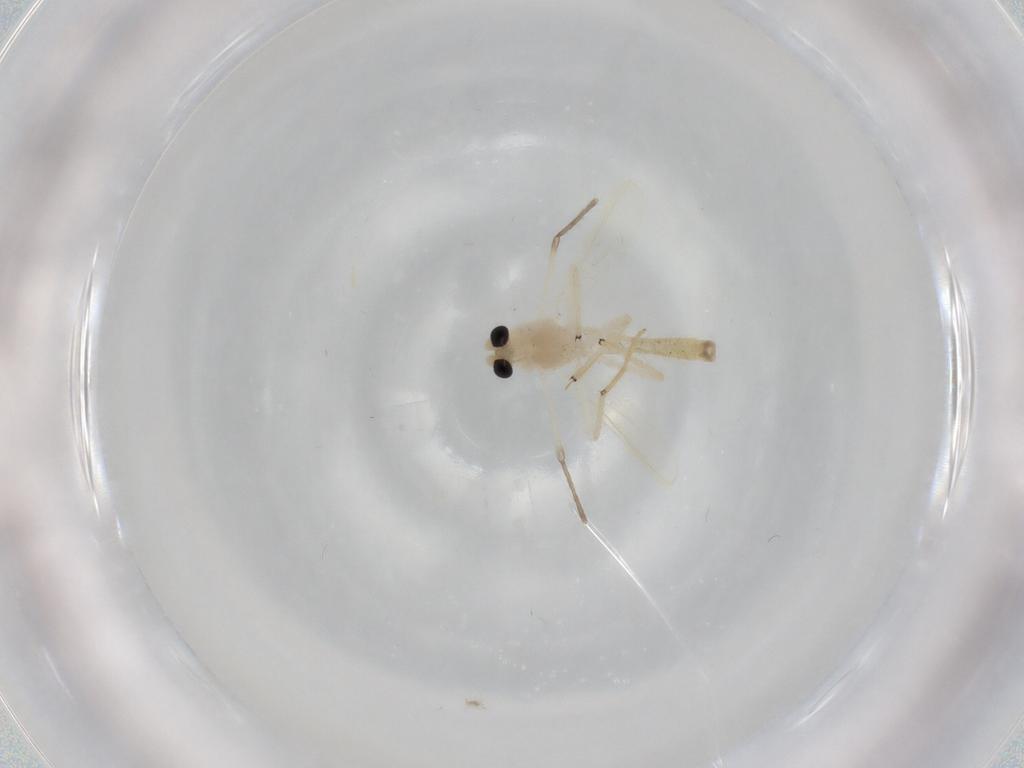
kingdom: Animalia
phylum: Arthropoda
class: Insecta
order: Diptera
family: Chironomidae
